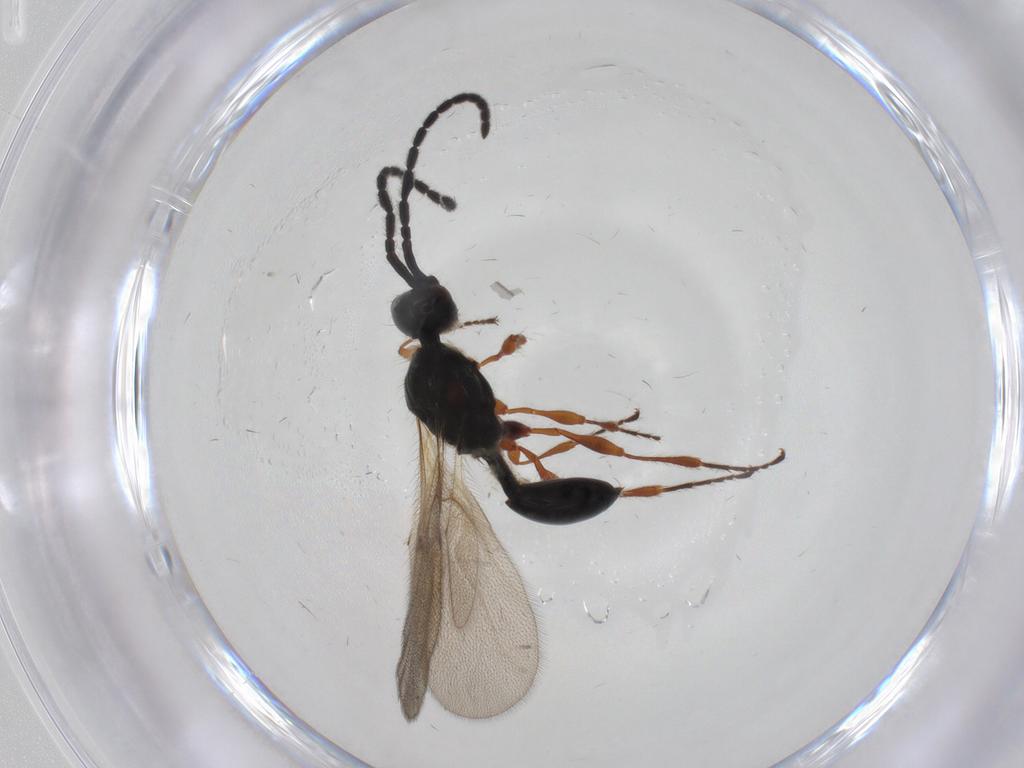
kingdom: Animalia
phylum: Arthropoda
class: Insecta
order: Hymenoptera
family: Diapriidae
